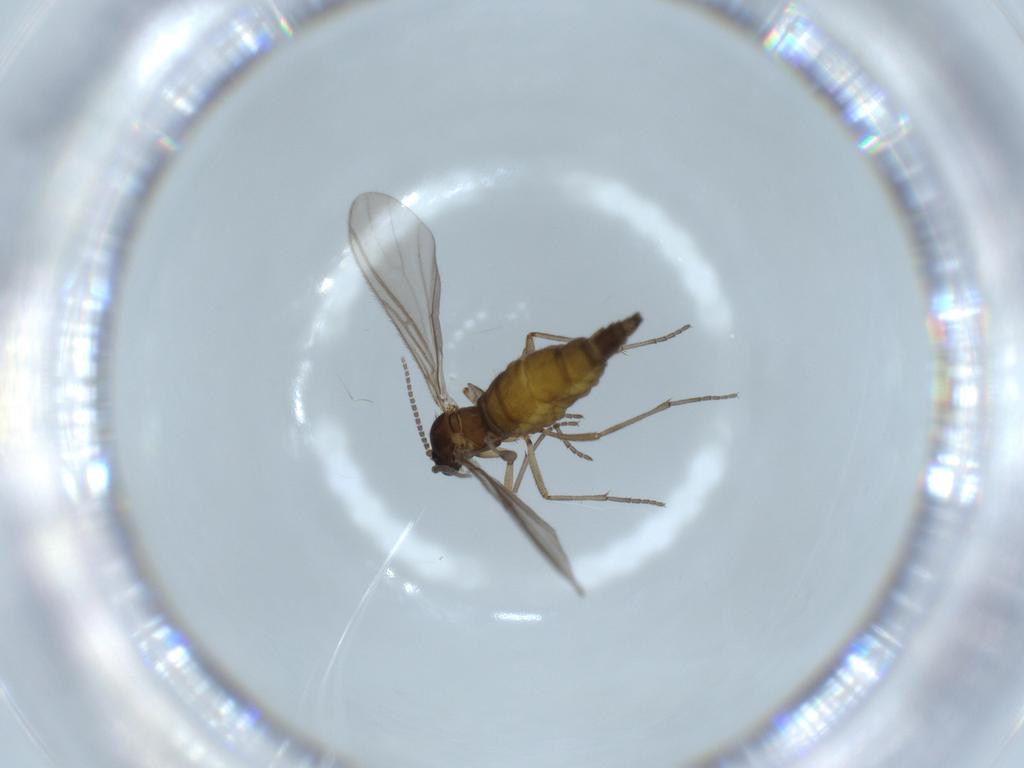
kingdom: Animalia
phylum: Arthropoda
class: Insecta
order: Diptera
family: Sciaridae
